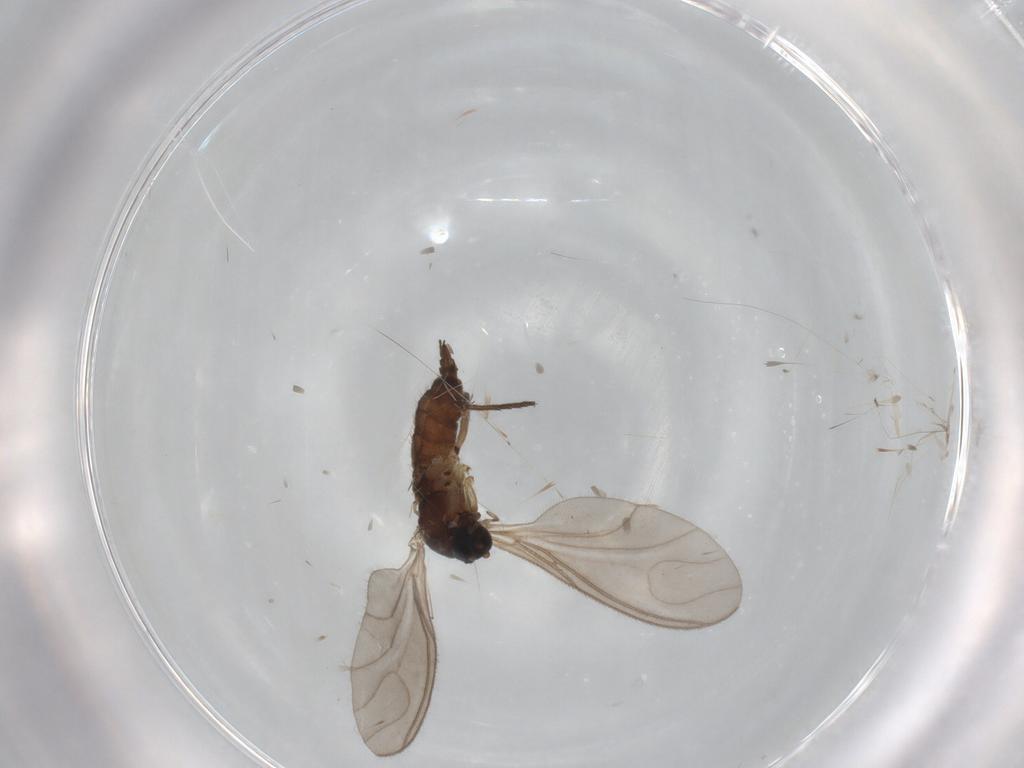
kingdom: Animalia
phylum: Arthropoda
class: Insecta
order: Diptera
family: Sciaridae
